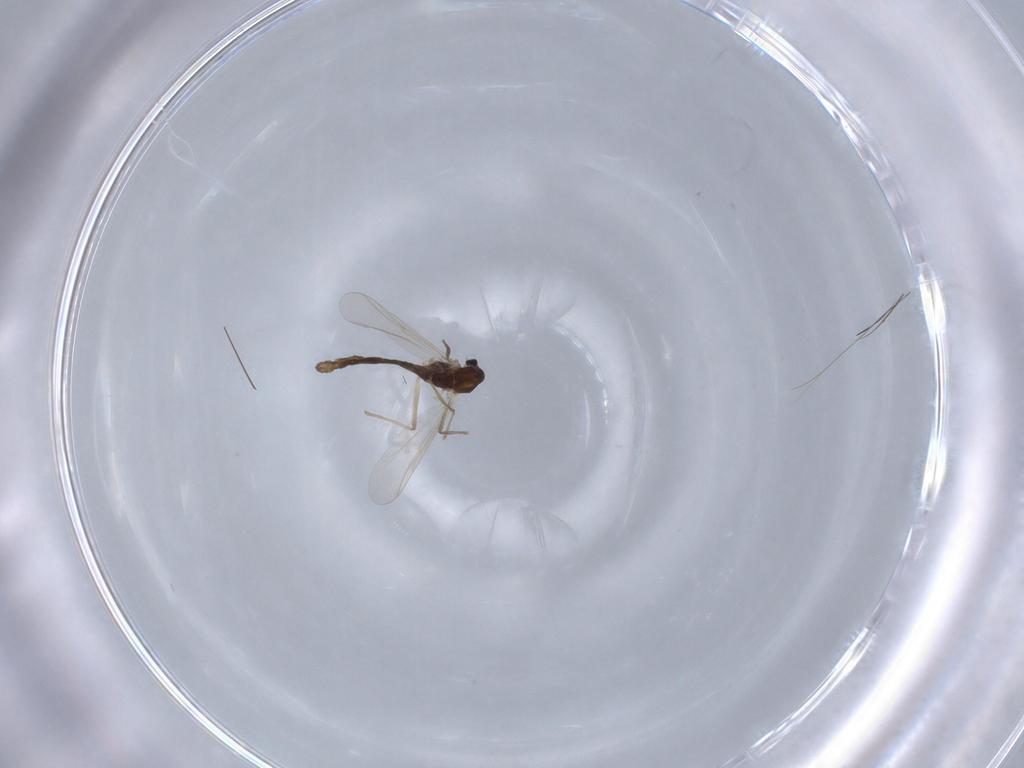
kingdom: Animalia
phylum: Arthropoda
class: Insecta
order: Diptera
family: Chironomidae
